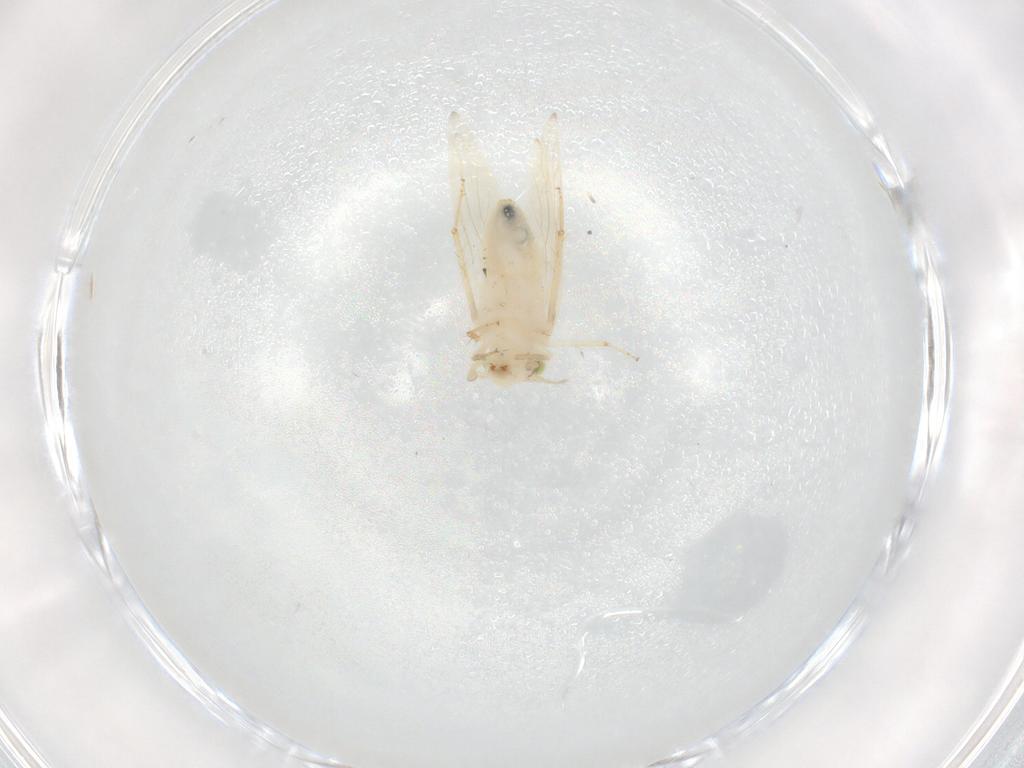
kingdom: Animalia
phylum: Arthropoda
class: Insecta
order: Psocodea
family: Lepidopsocidae
